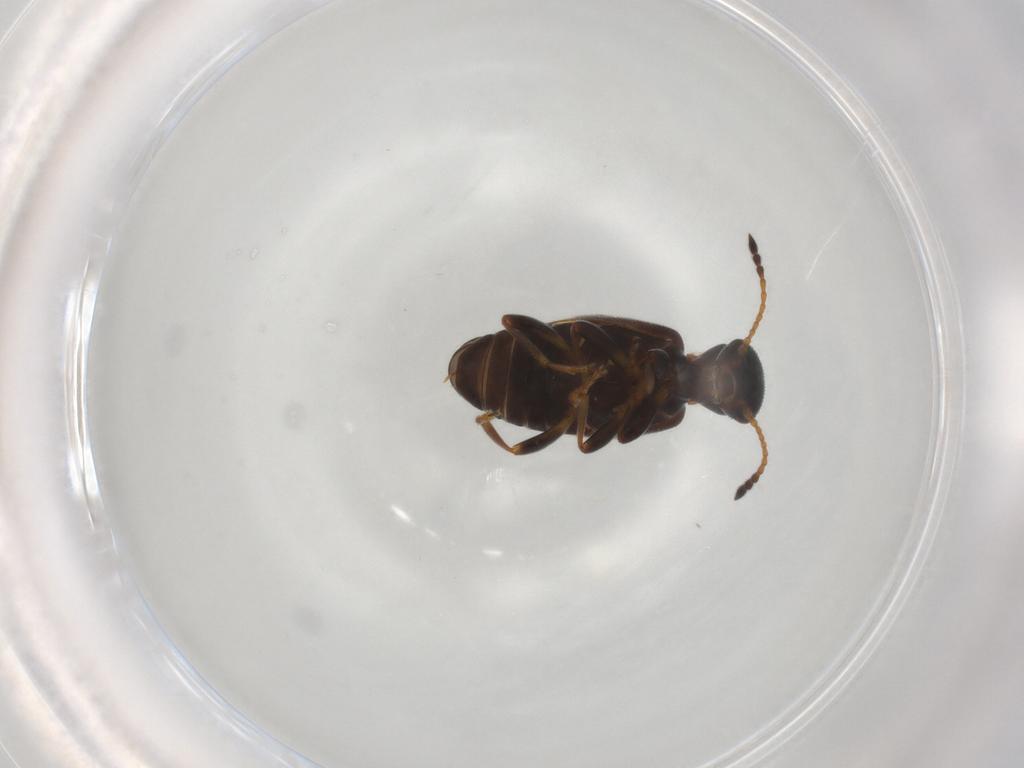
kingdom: Animalia
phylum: Arthropoda
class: Insecta
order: Coleoptera
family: Anthicidae
